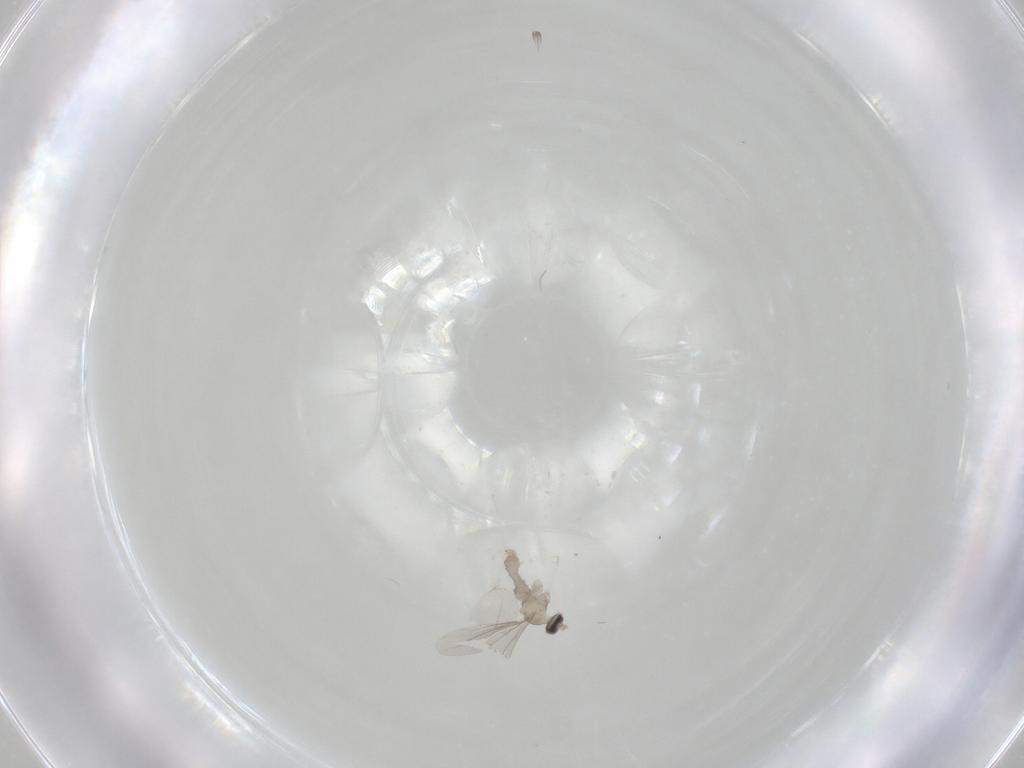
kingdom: Animalia
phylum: Arthropoda
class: Insecta
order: Diptera
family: Cecidomyiidae
